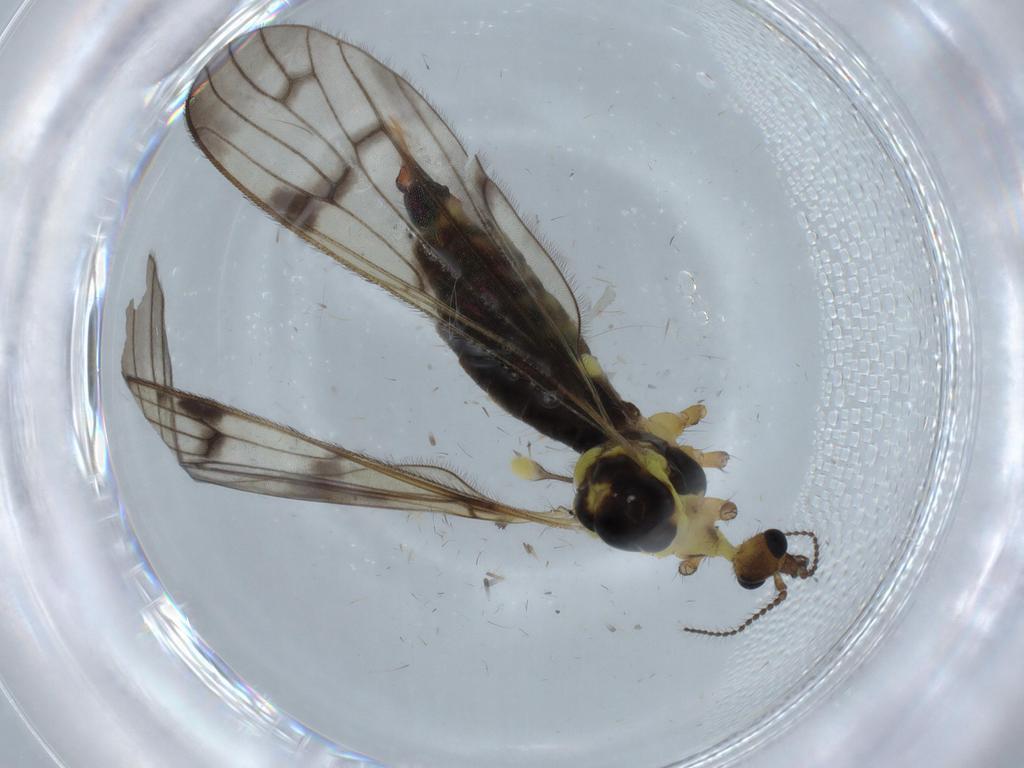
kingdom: Animalia
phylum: Arthropoda
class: Insecta
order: Diptera
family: Limoniidae
